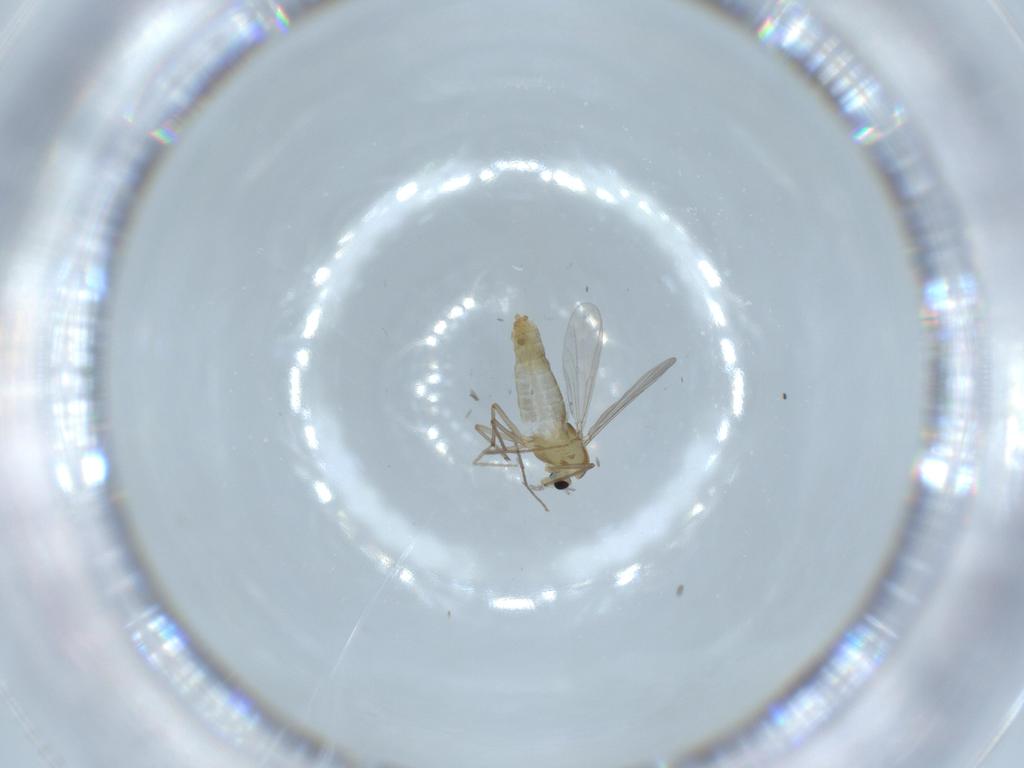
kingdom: Animalia
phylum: Arthropoda
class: Insecta
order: Diptera
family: Chironomidae
